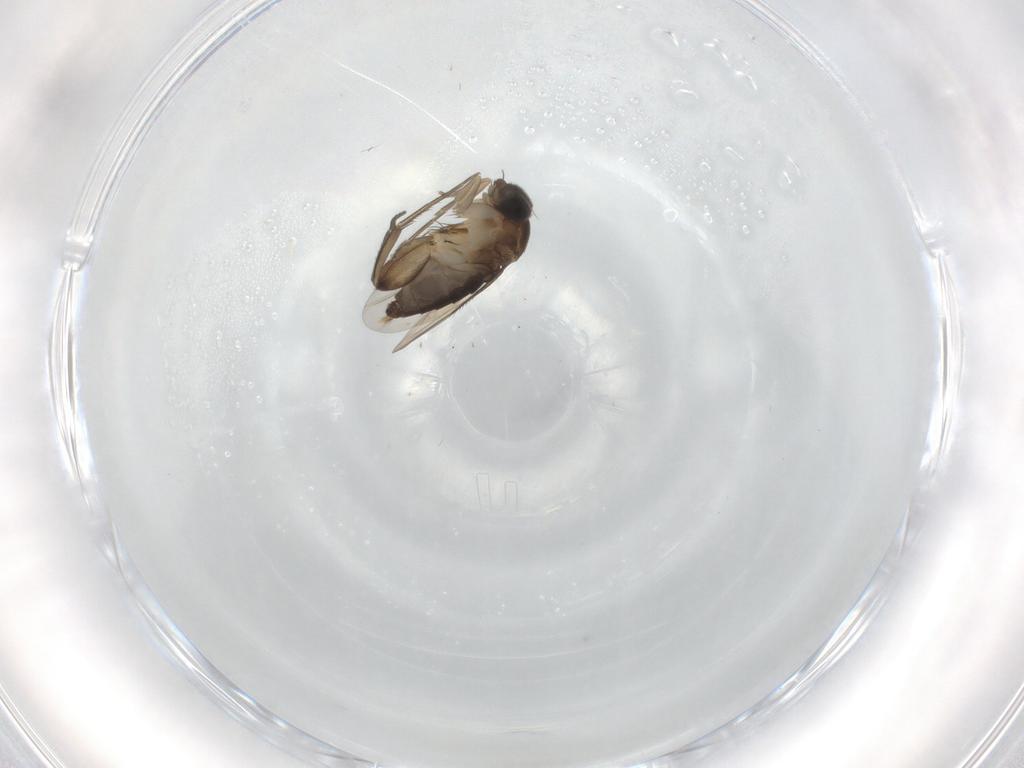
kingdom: Animalia
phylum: Arthropoda
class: Insecta
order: Diptera
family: Phoridae
